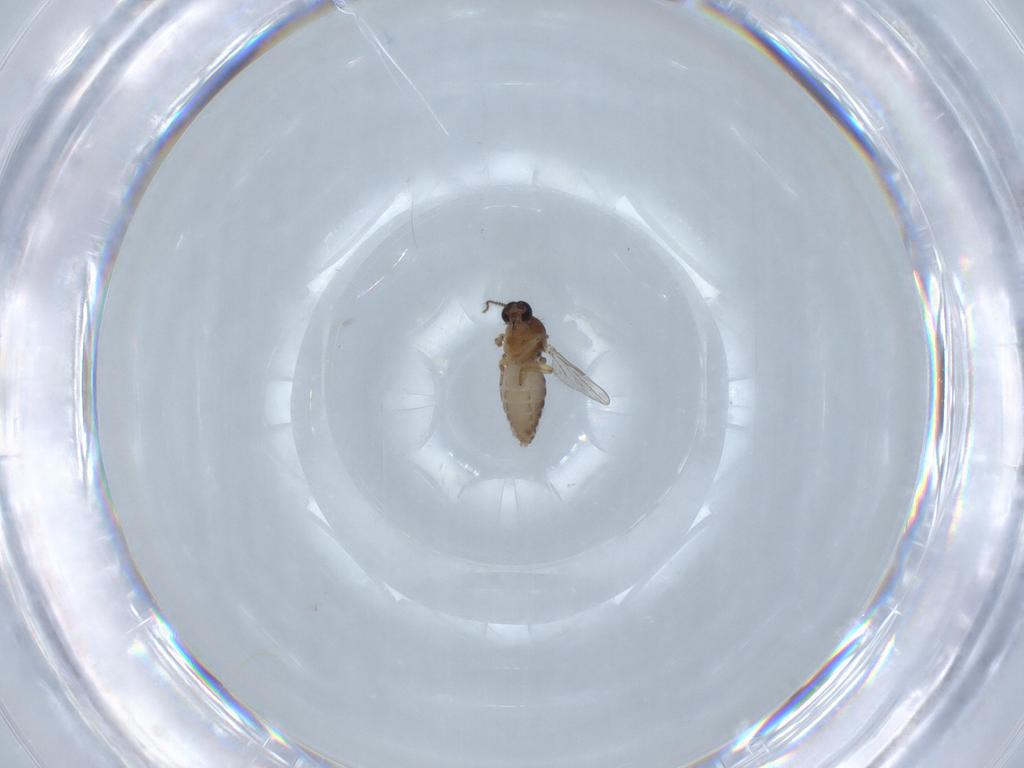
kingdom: Animalia
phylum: Arthropoda
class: Insecta
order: Diptera
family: Ceratopogonidae
